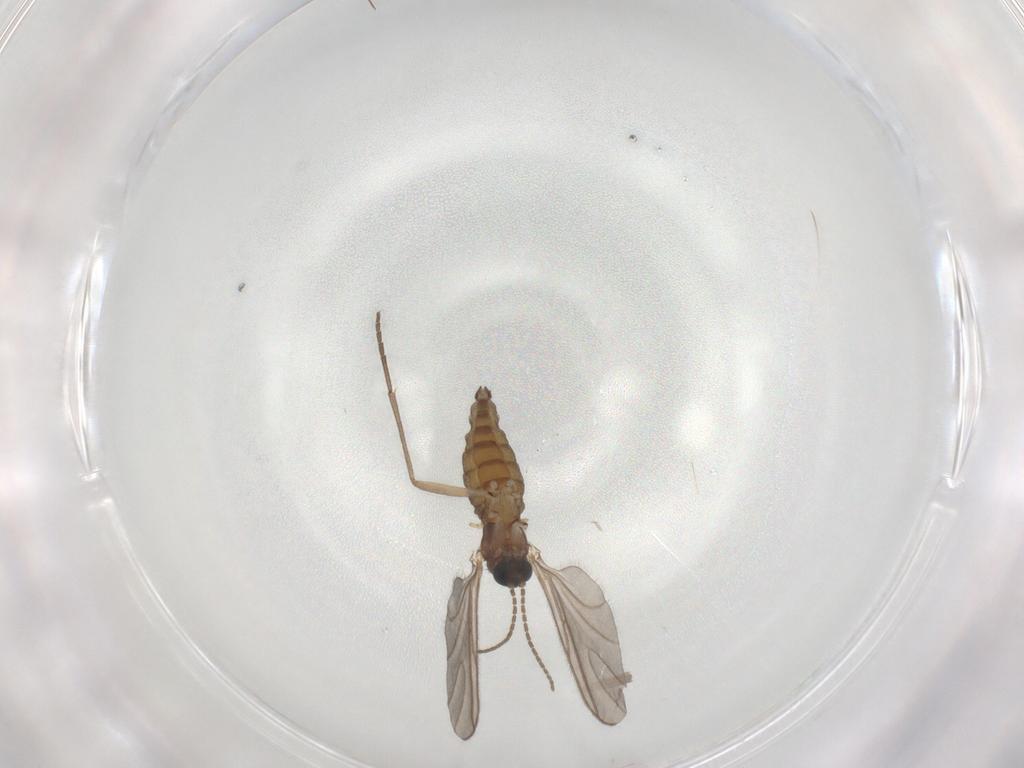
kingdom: Animalia
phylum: Arthropoda
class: Insecta
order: Diptera
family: Sciaridae
